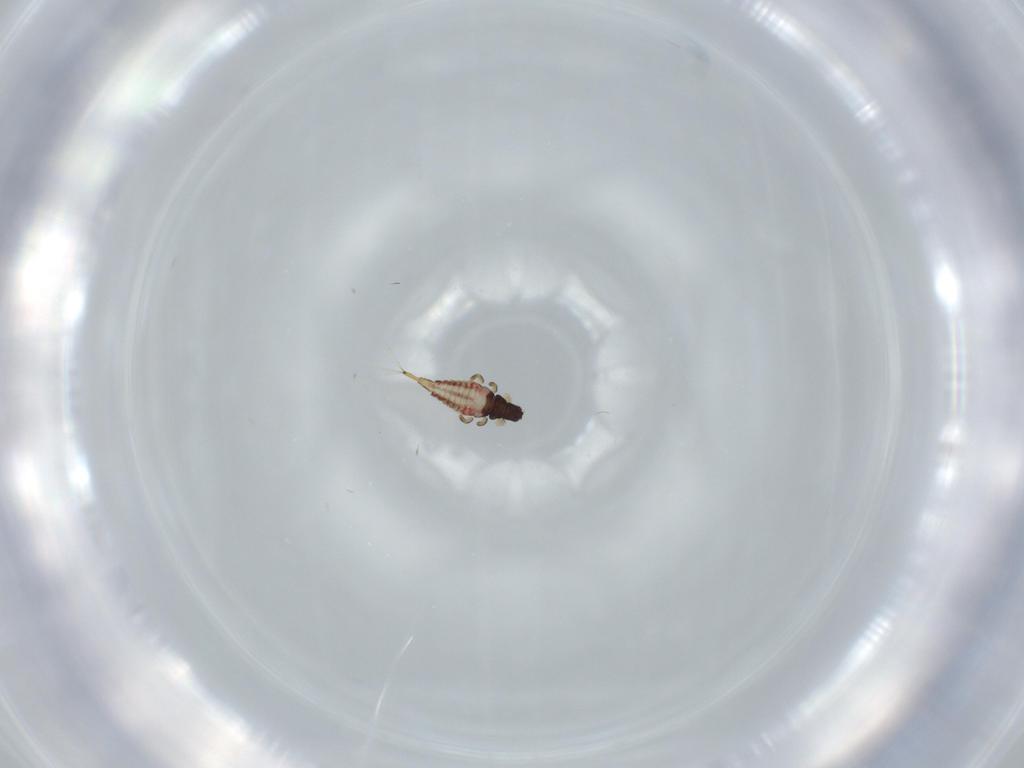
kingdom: Animalia
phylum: Arthropoda
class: Insecta
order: Thysanoptera
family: Phlaeothripidae
